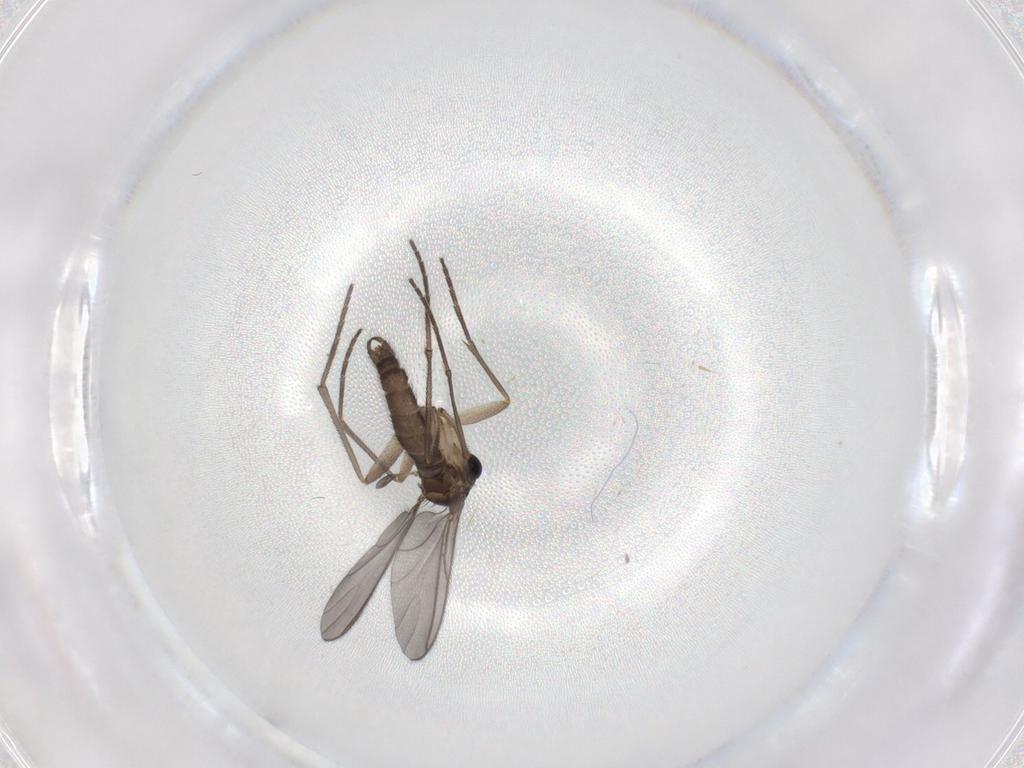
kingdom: Animalia
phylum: Arthropoda
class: Insecta
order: Diptera
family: Sciaridae
